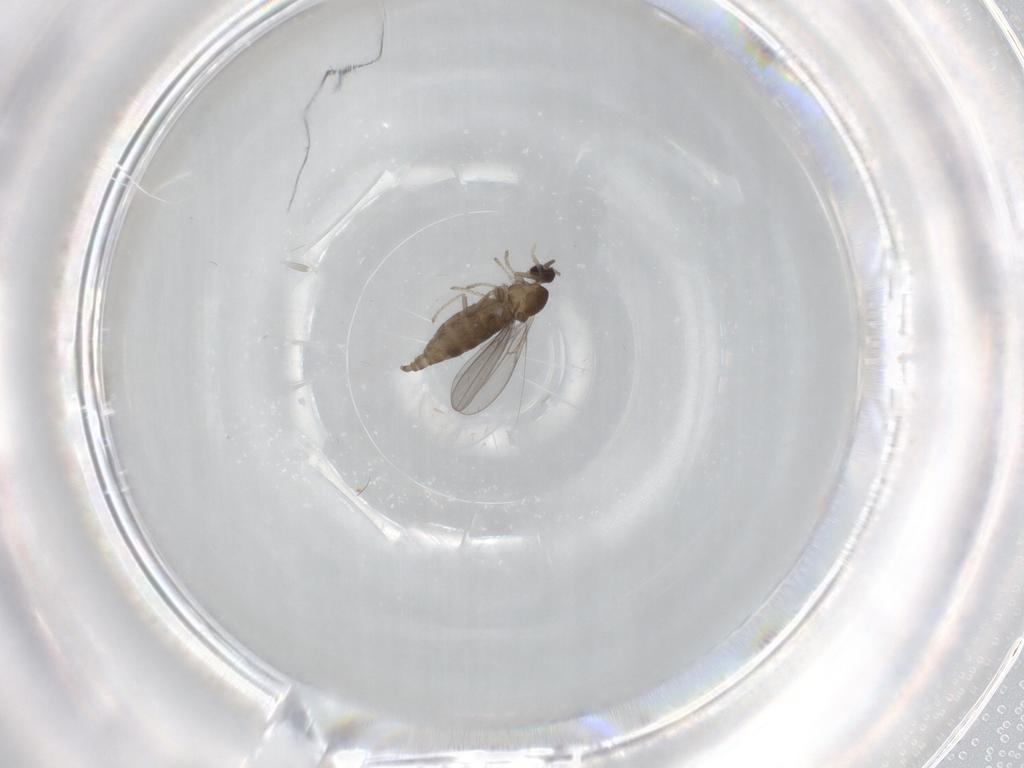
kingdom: Animalia
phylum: Arthropoda
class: Insecta
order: Diptera
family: Cecidomyiidae
